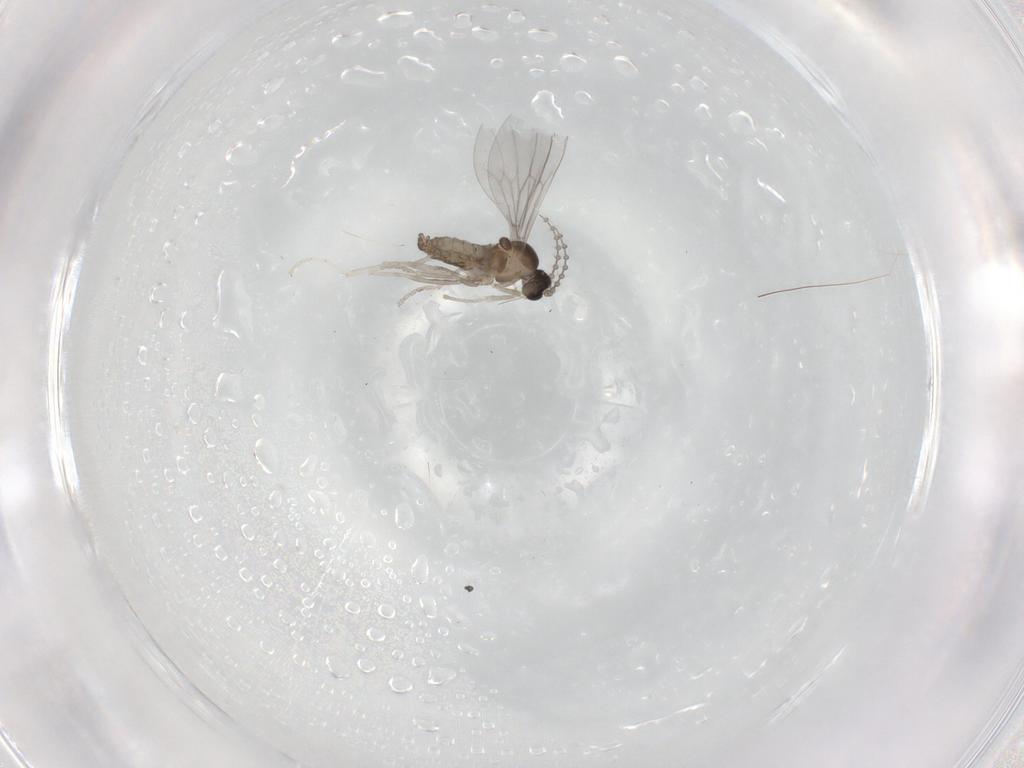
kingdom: Animalia
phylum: Arthropoda
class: Insecta
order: Diptera
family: Cecidomyiidae
